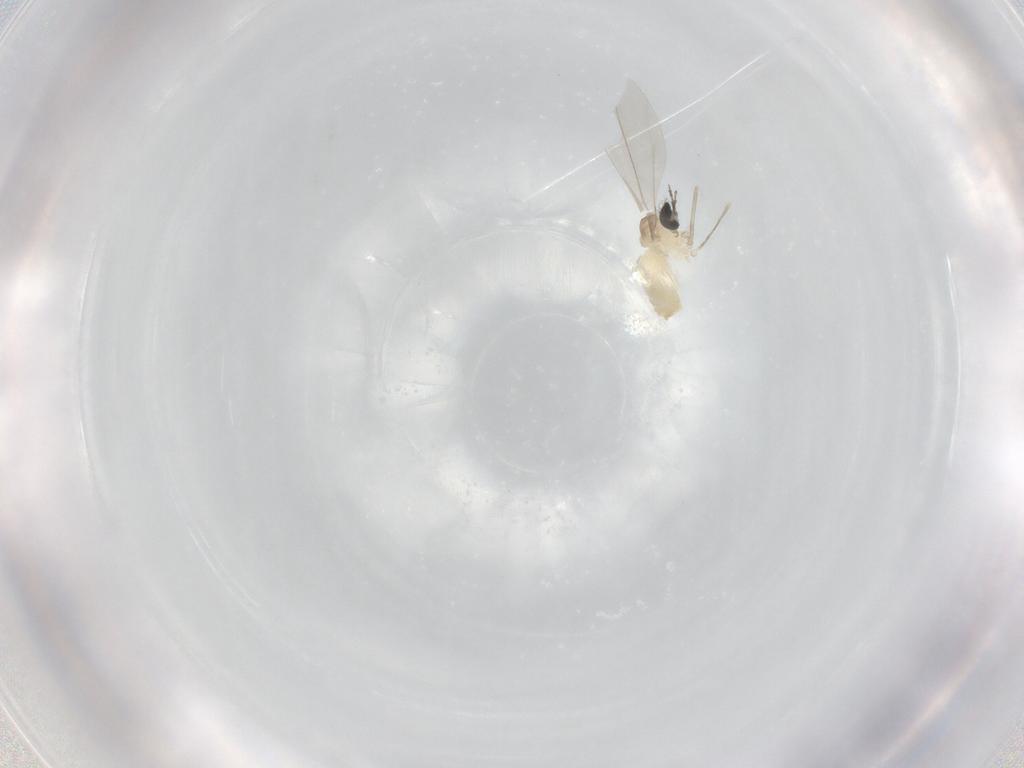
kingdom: Animalia
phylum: Arthropoda
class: Insecta
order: Diptera
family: Cecidomyiidae
